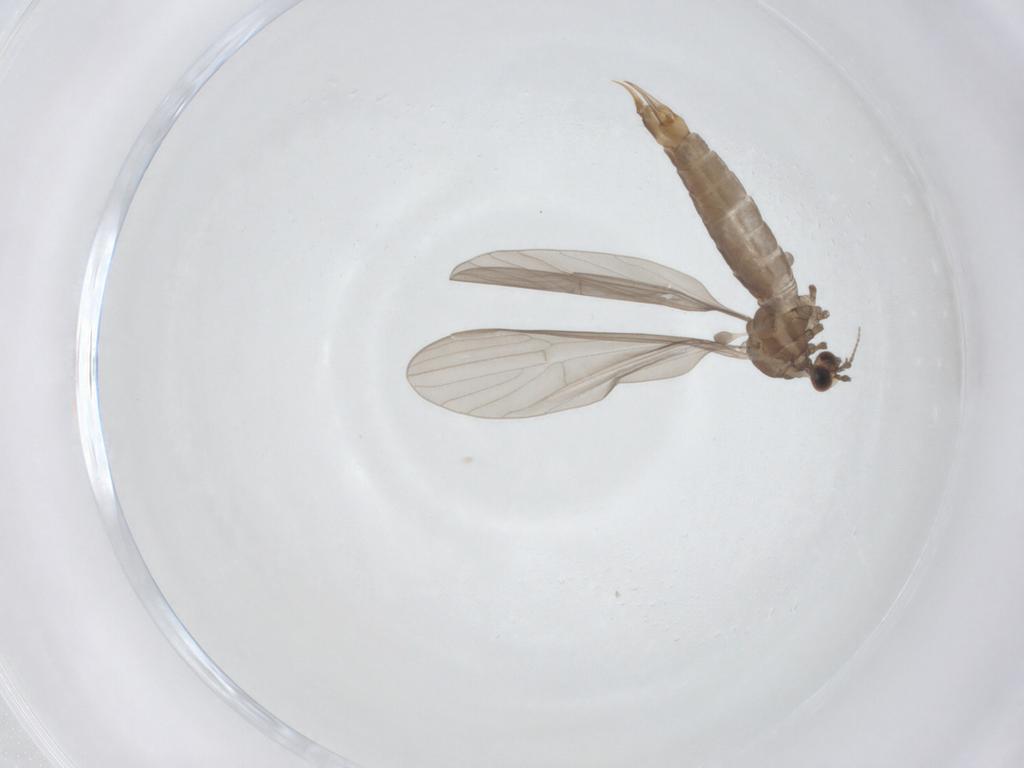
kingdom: Animalia
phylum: Arthropoda
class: Insecta
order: Diptera
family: Limoniidae
